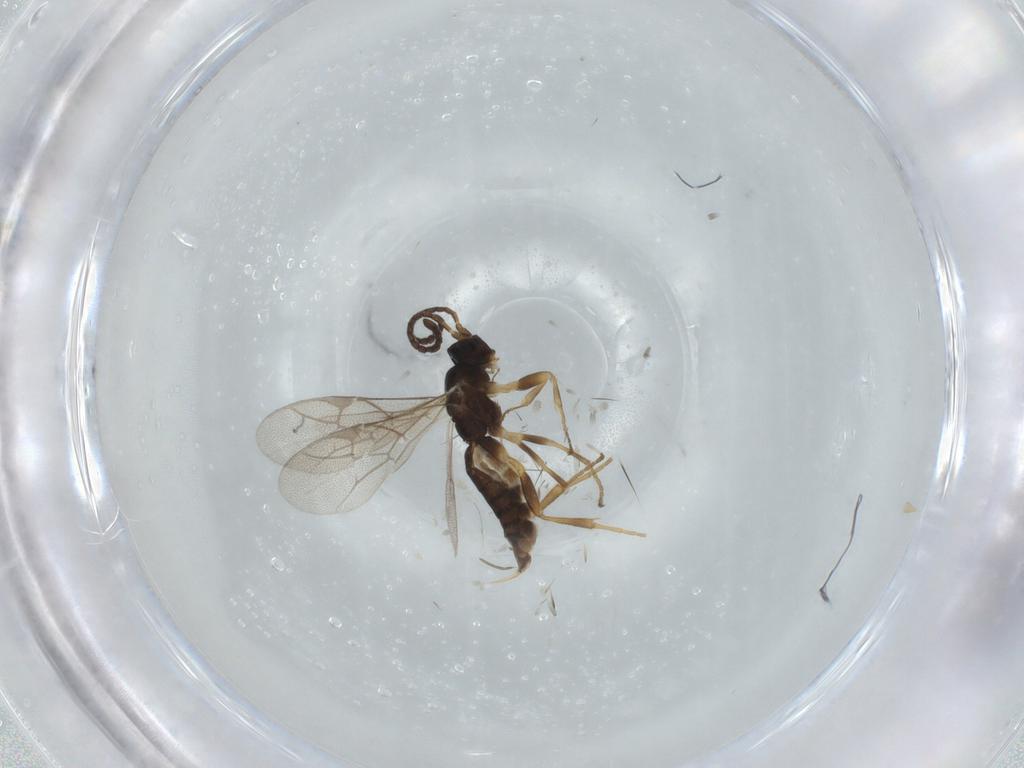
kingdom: Animalia
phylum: Arthropoda
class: Insecta
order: Hymenoptera
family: Ichneumonidae
